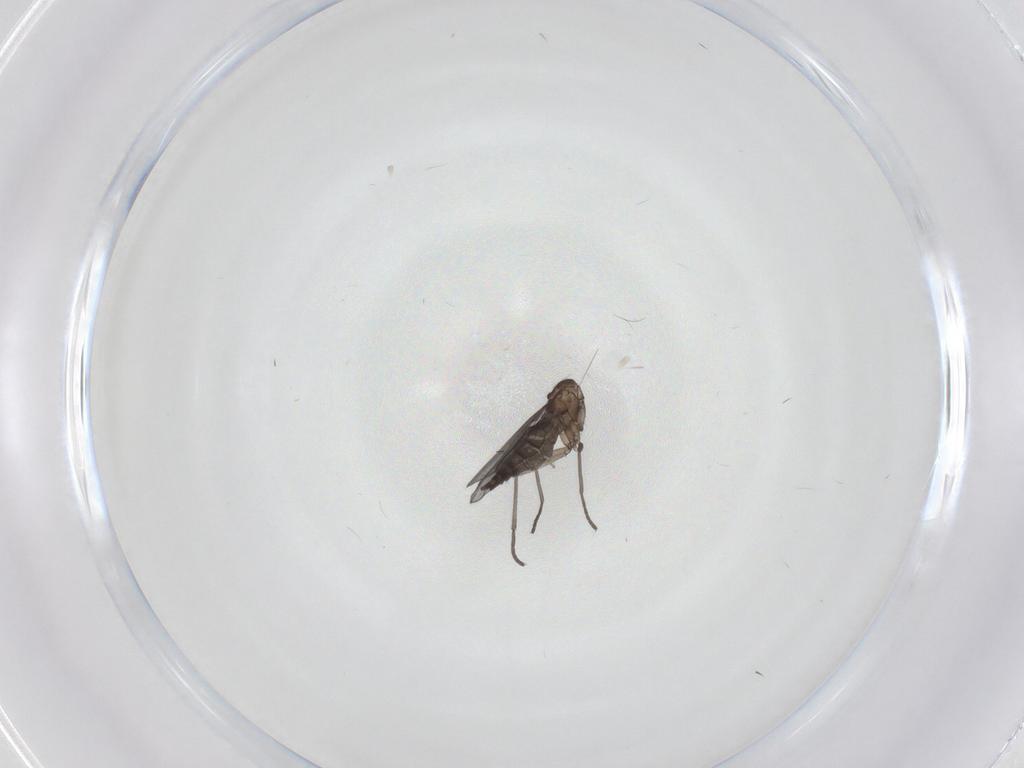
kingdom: Animalia
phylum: Arthropoda
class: Insecta
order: Diptera
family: Ceratopogonidae
